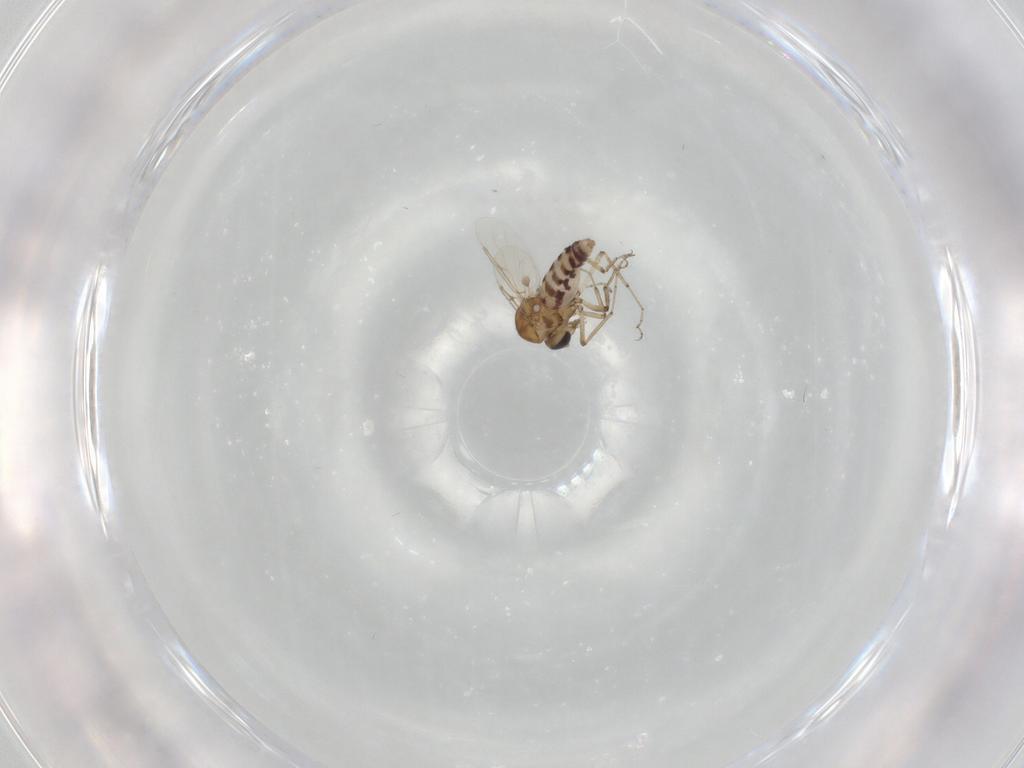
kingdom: Animalia
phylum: Arthropoda
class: Insecta
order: Diptera
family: Ceratopogonidae
